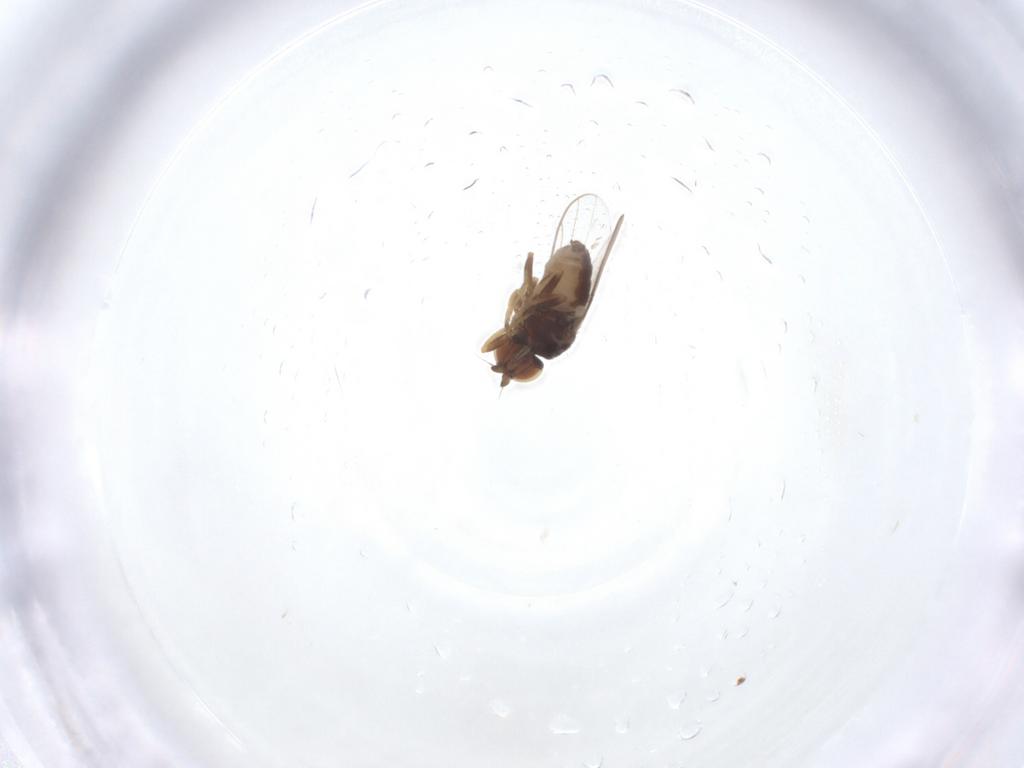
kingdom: Animalia
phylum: Arthropoda
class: Insecta
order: Diptera
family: Chloropidae
